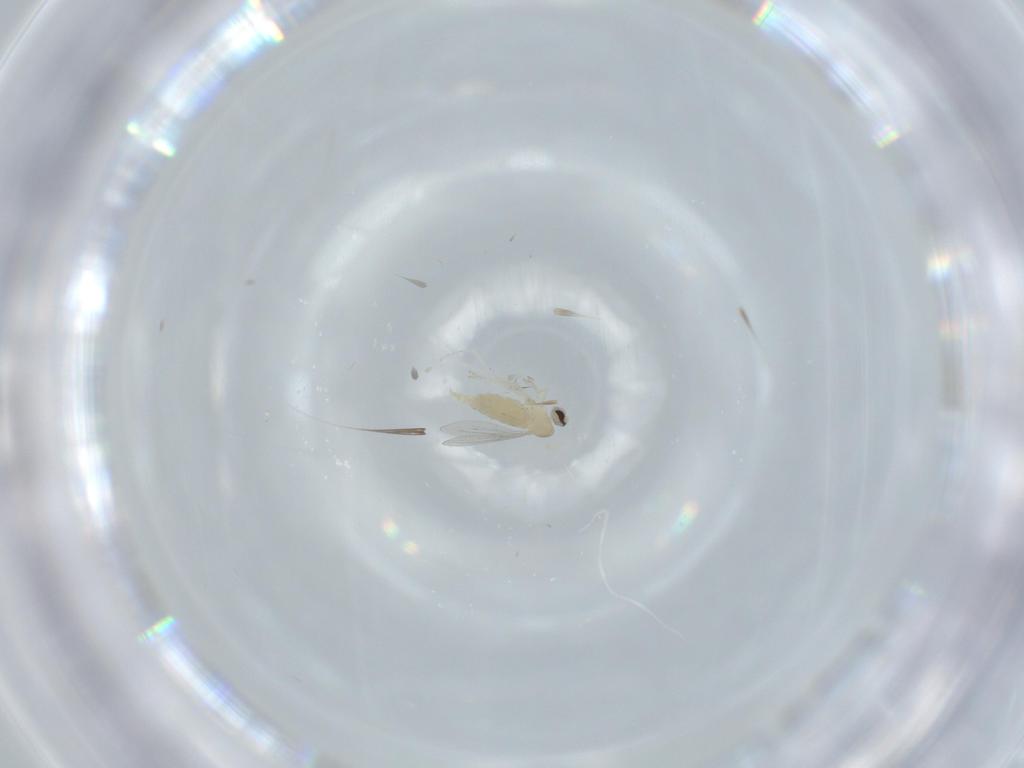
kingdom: Animalia
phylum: Arthropoda
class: Insecta
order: Diptera
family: Cecidomyiidae
